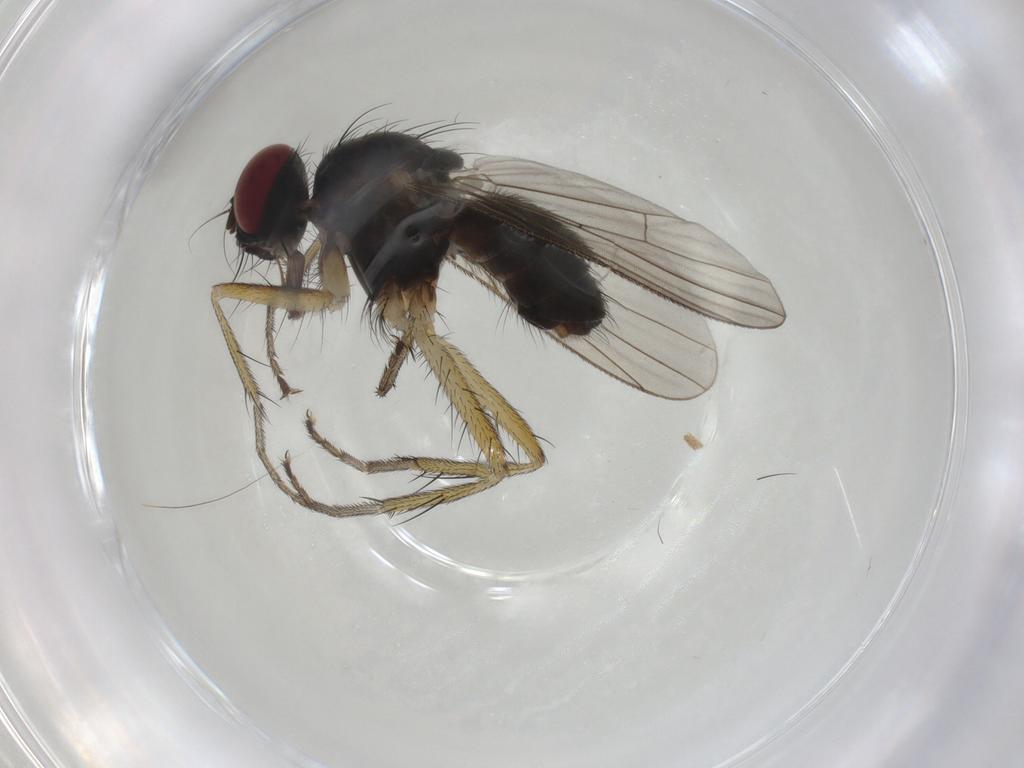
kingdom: Animalia
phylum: Arthropoda
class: Insecta
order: Diptera
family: Muscidae
